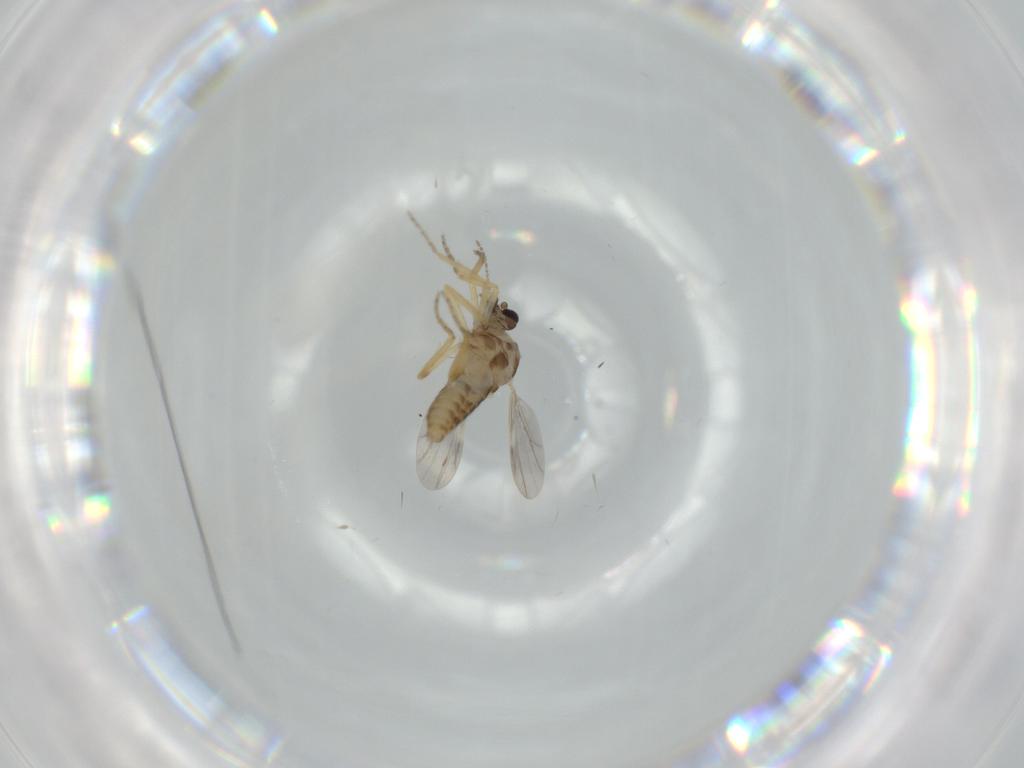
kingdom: Animalia
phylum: Arthropoda
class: Insecta
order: Diptera
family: Ceratopogonidae
